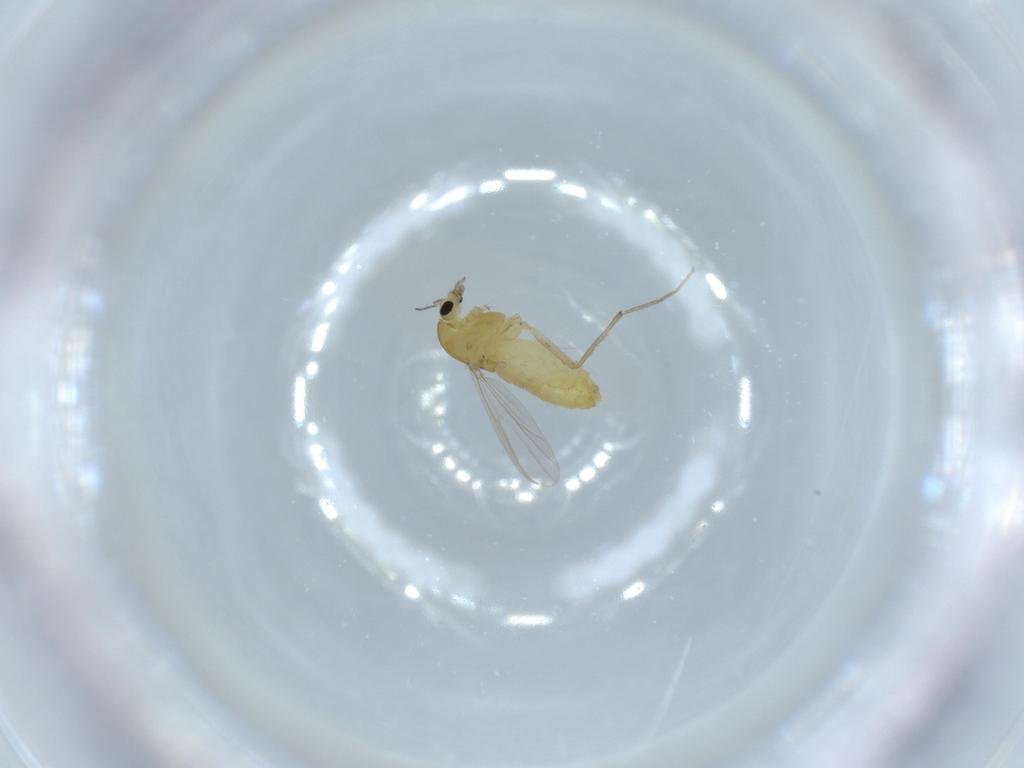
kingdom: Animalia
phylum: Arthropoda
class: Insecta
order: Diptera
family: Chironomidae
